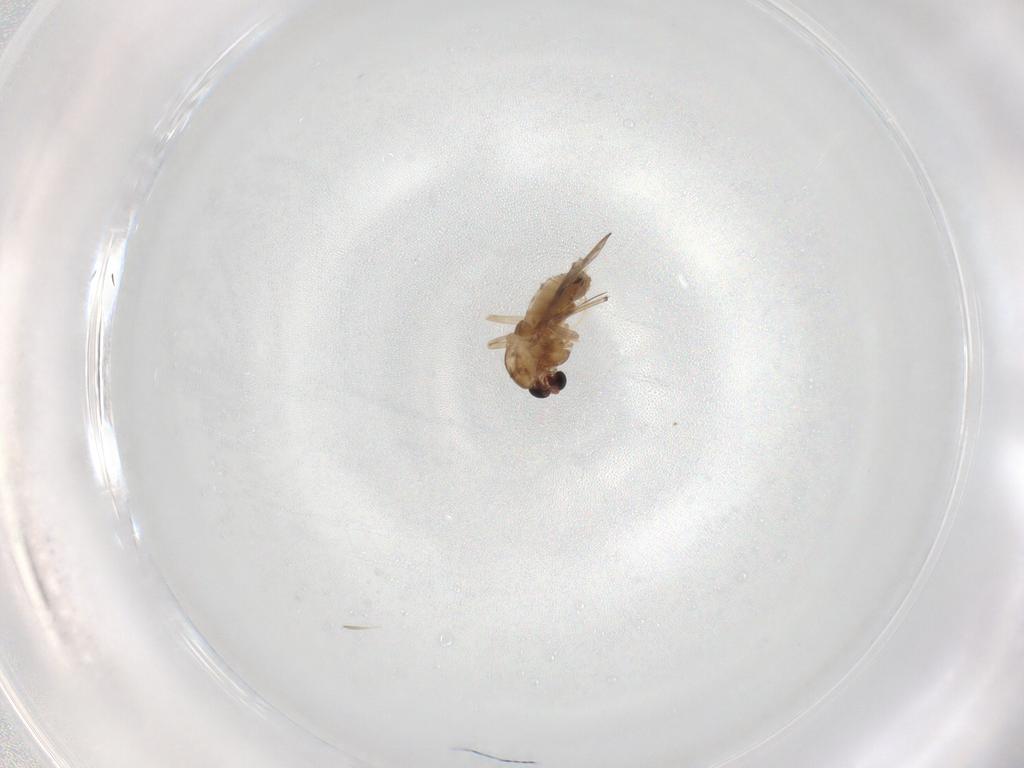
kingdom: Animalia
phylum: Arthropoda
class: Insecta
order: Diptera
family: Chironomidae
